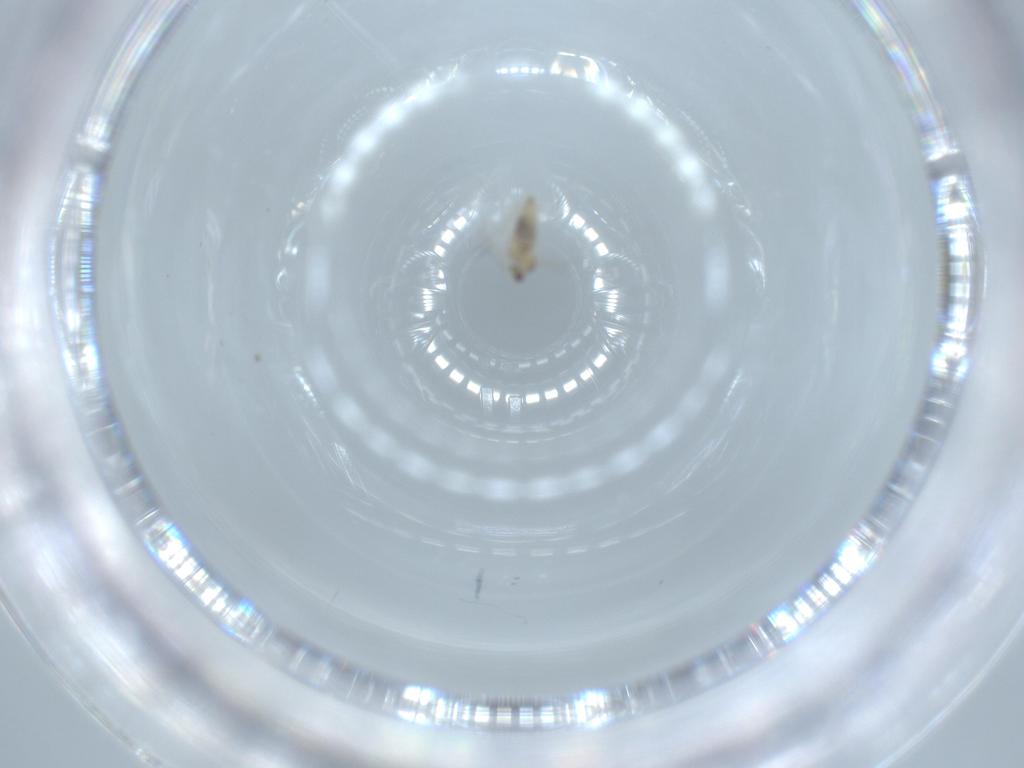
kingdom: Animalia
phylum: Arthropoda
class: Insecta
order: Diptera
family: Cecidomyiidae
